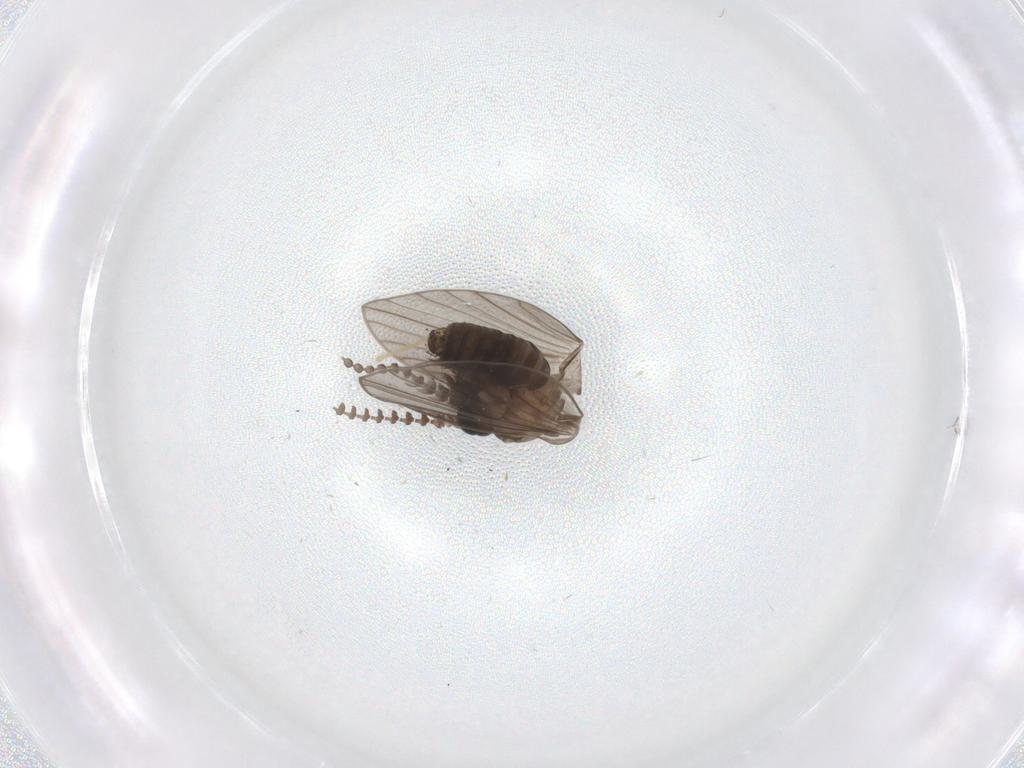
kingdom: Animalia
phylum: Arthropoda
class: Insecta
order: Diptera
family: Psychodidae
